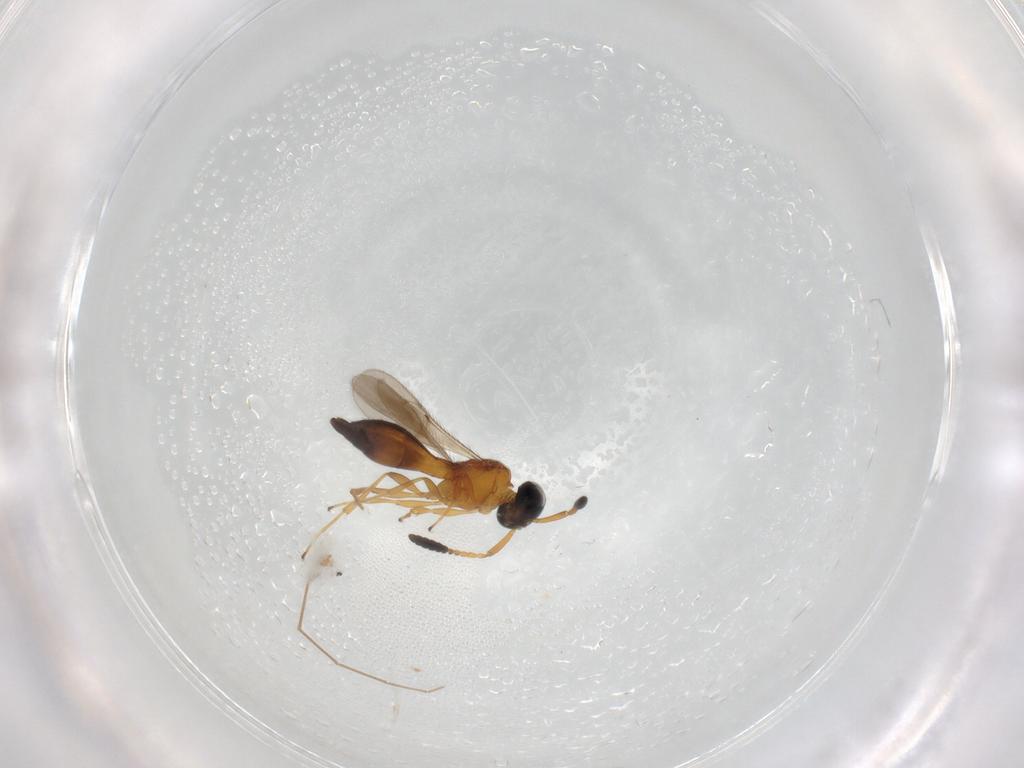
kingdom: Animalia
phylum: Arthropoda
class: Insecta
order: Hymenoptera
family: Scelionidae
